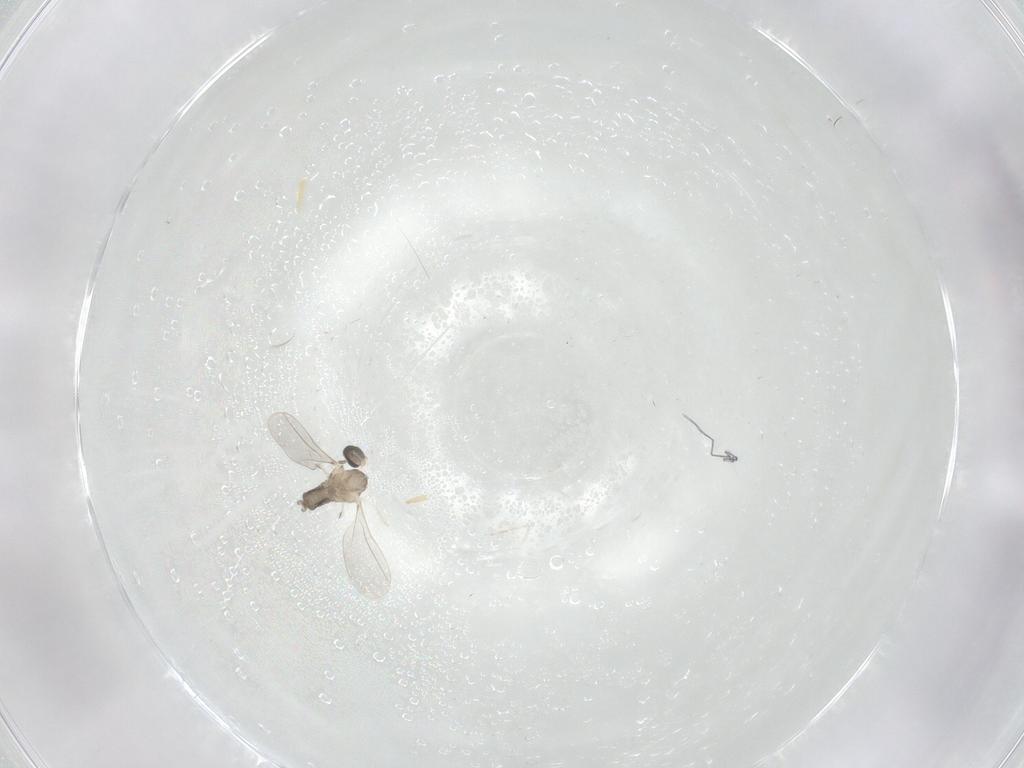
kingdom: Animalia
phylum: Arthropoda
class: Insecta
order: Diptera
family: Cecidomyiidae
